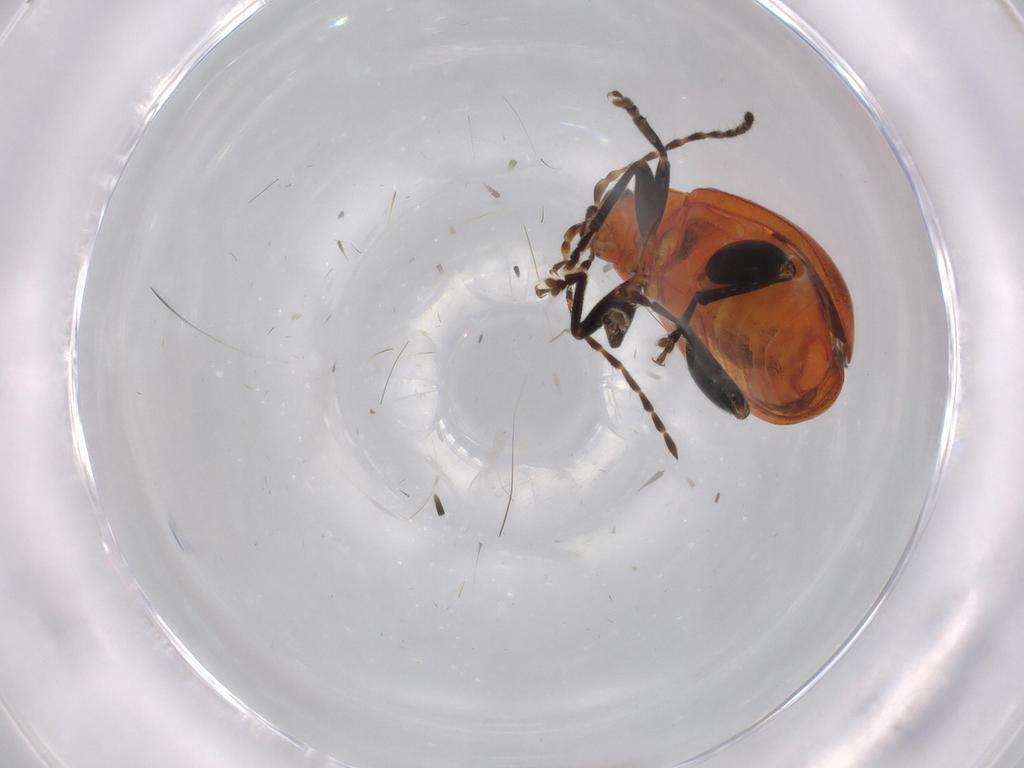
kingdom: Animalia
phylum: Arthropoda
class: Insecta
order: Coleoptera
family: Chrysomelidae
